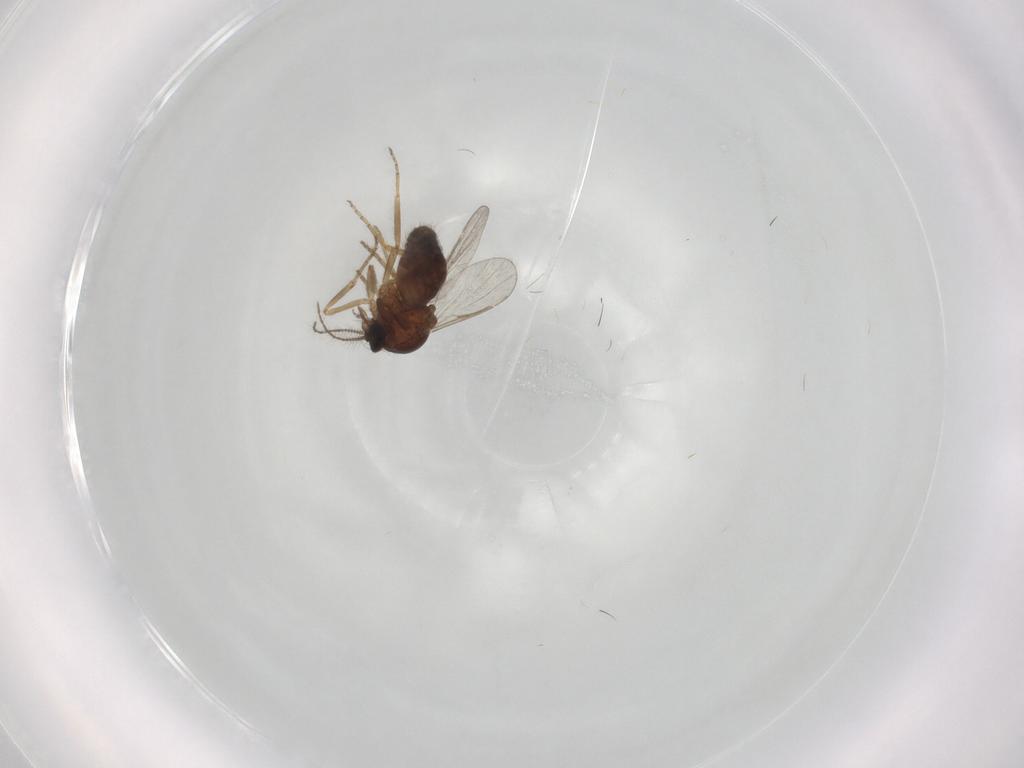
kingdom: Animalia
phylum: Arthropoda
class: Insecta
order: Diptera
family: Ceratopogonidae
